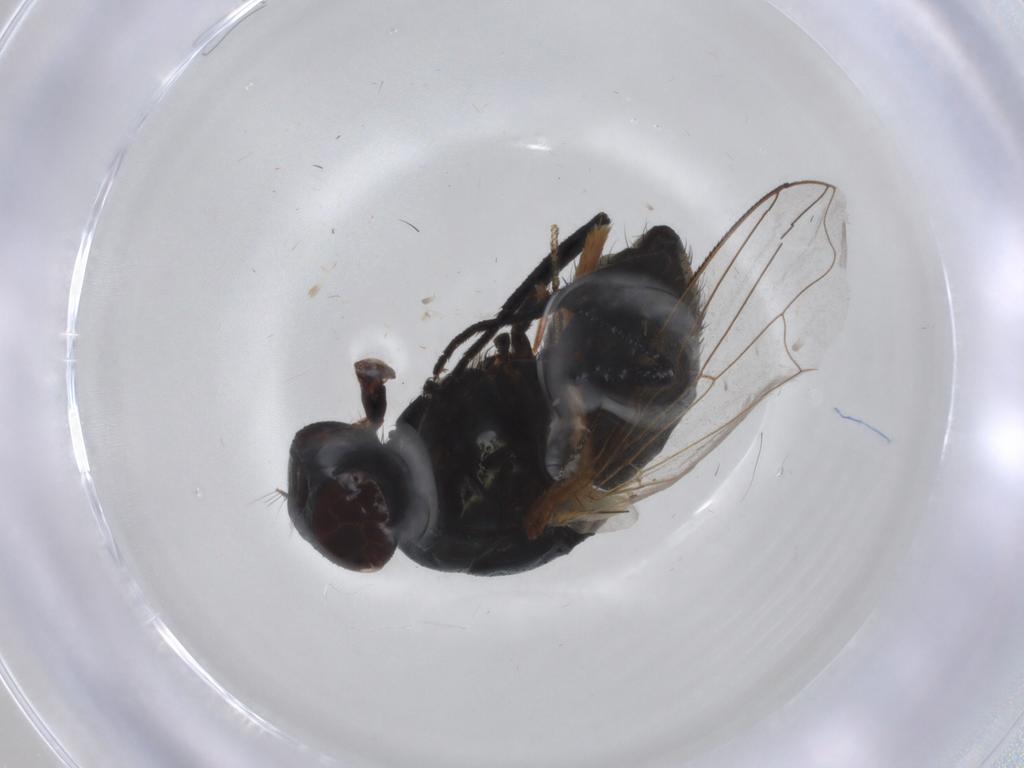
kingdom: Animalia
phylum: Arthropoda
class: Insecta
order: Diptera
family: Muscidae
